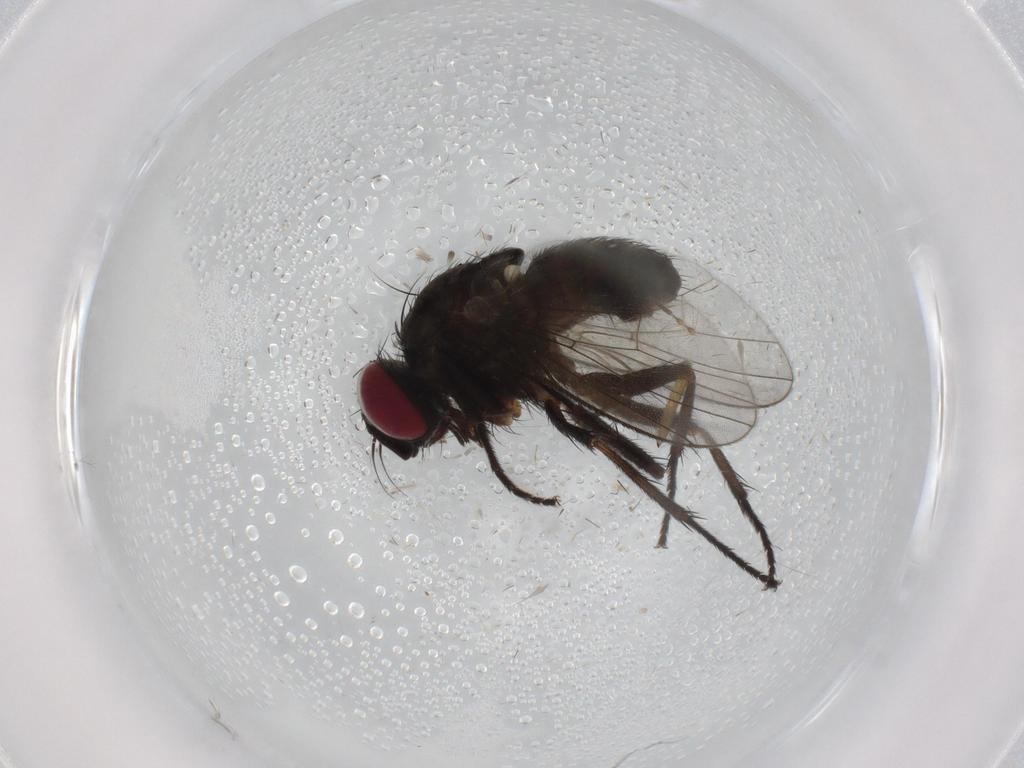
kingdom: Animalia
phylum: Arthropoda
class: Insecta
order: Diptera
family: Muscidae
